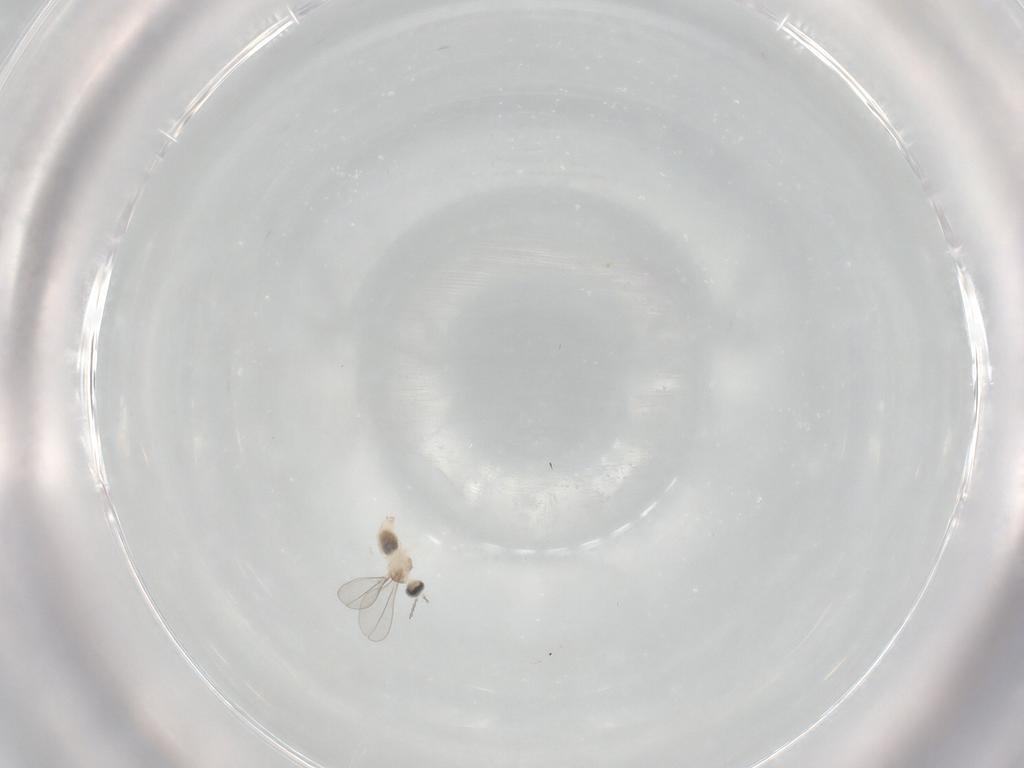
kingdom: Animalia
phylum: Arthropoda
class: Insecta
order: Diptera
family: Cecidomyiidae
